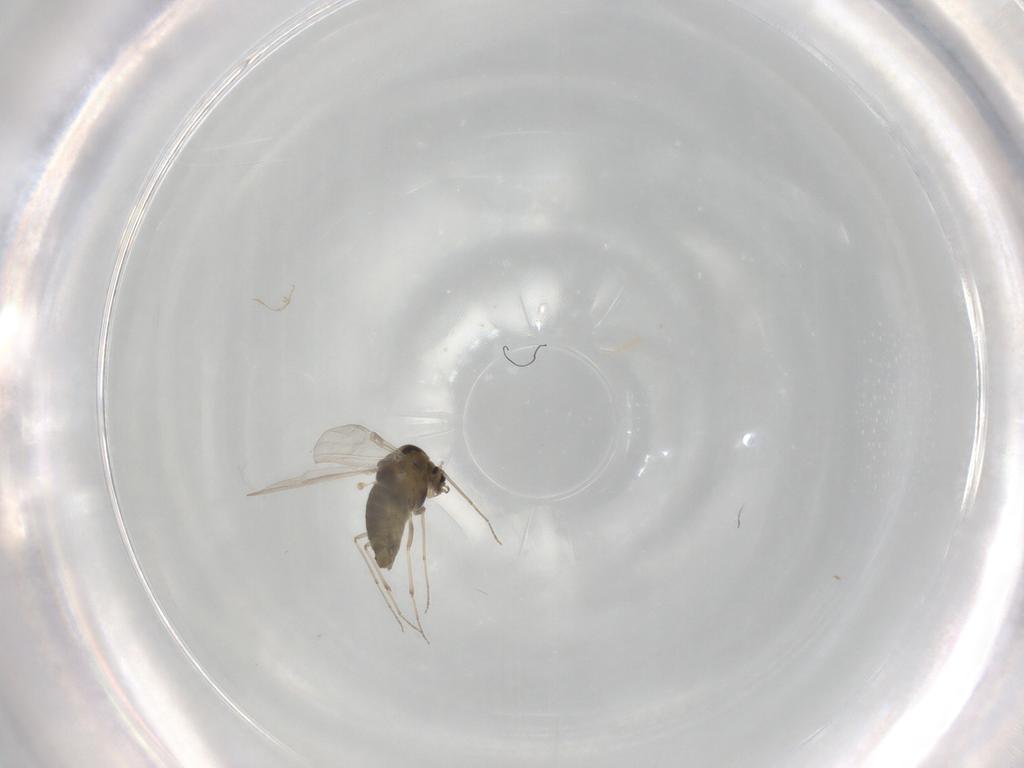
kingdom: Animalia
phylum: Arthropoda
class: Insecta
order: Diptera
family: Chironomidae
